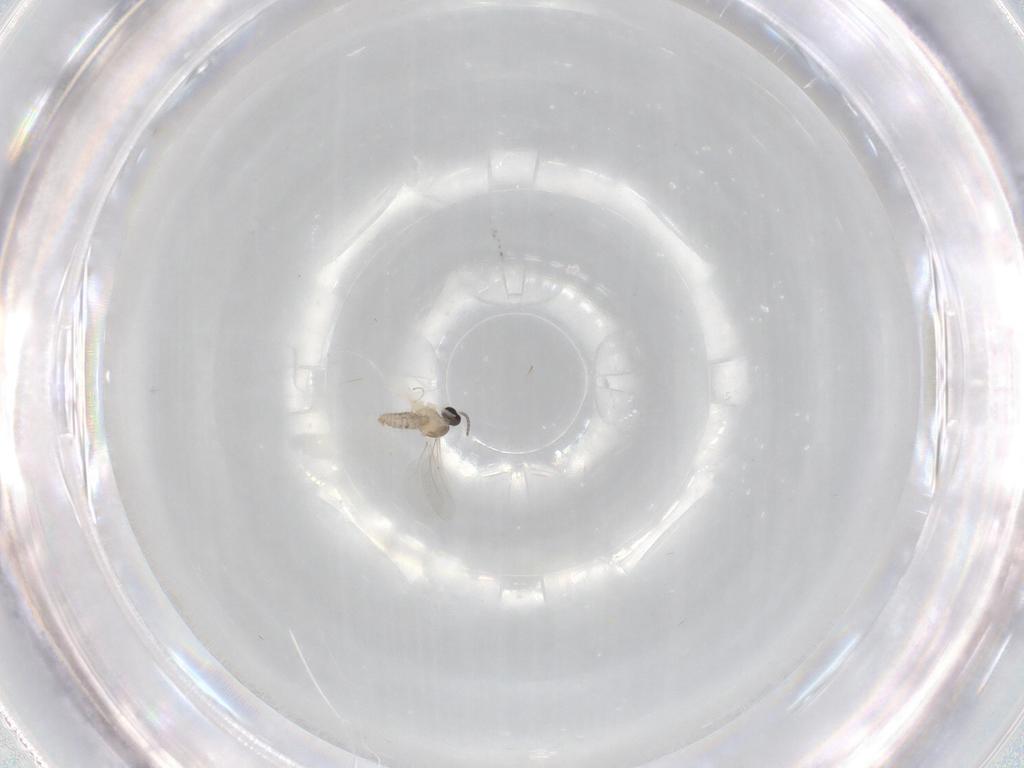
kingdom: Animalia
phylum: Arthropoda
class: Insecta
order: Diptera
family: Cecidomyiidae
